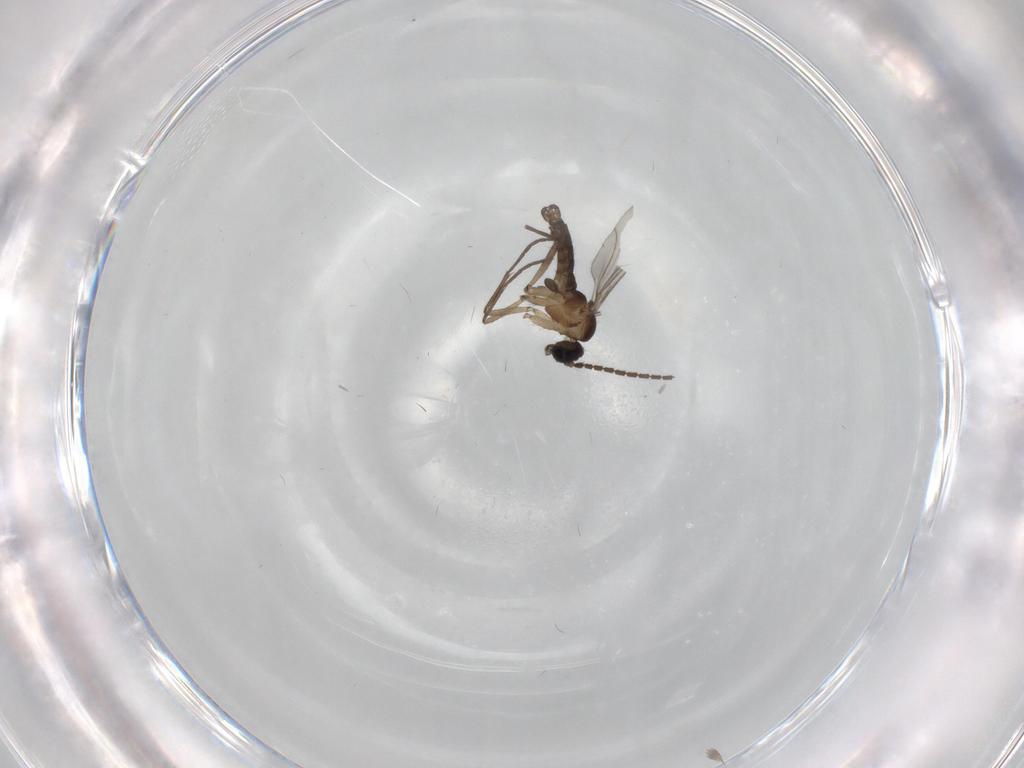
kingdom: Animalia
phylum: Arthropoda
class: Insecta
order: Diptera
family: Sciaridae
